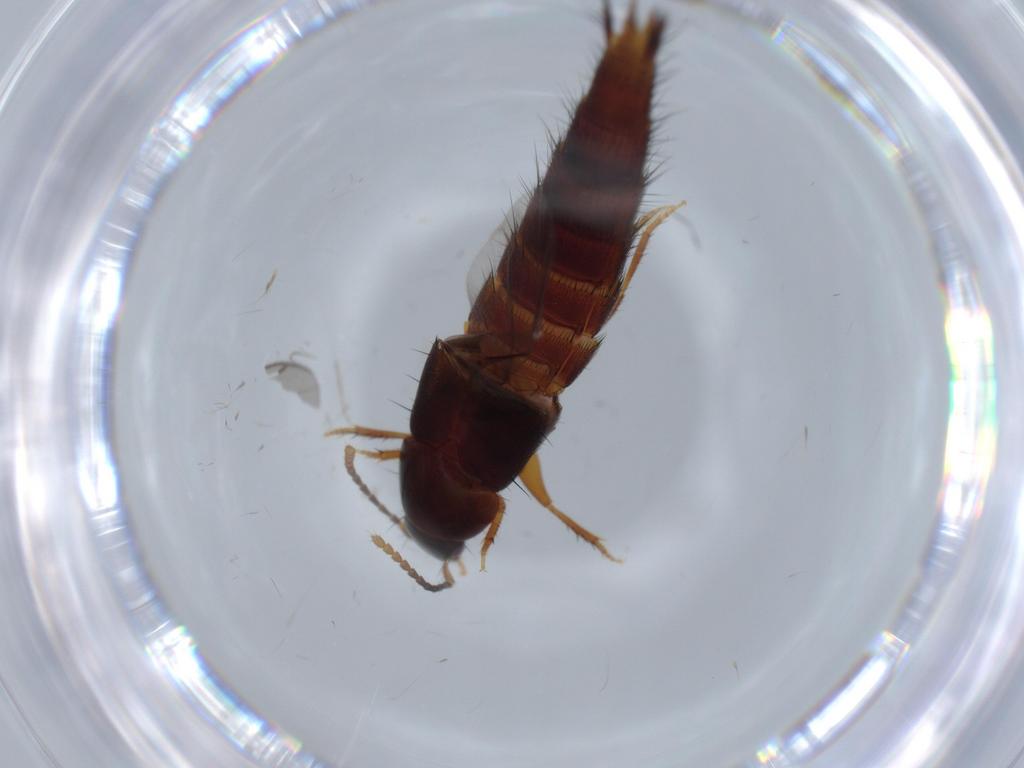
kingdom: Animalia
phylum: Arthropoda
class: Insecta
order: Coleoptera
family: Staphylinidae
